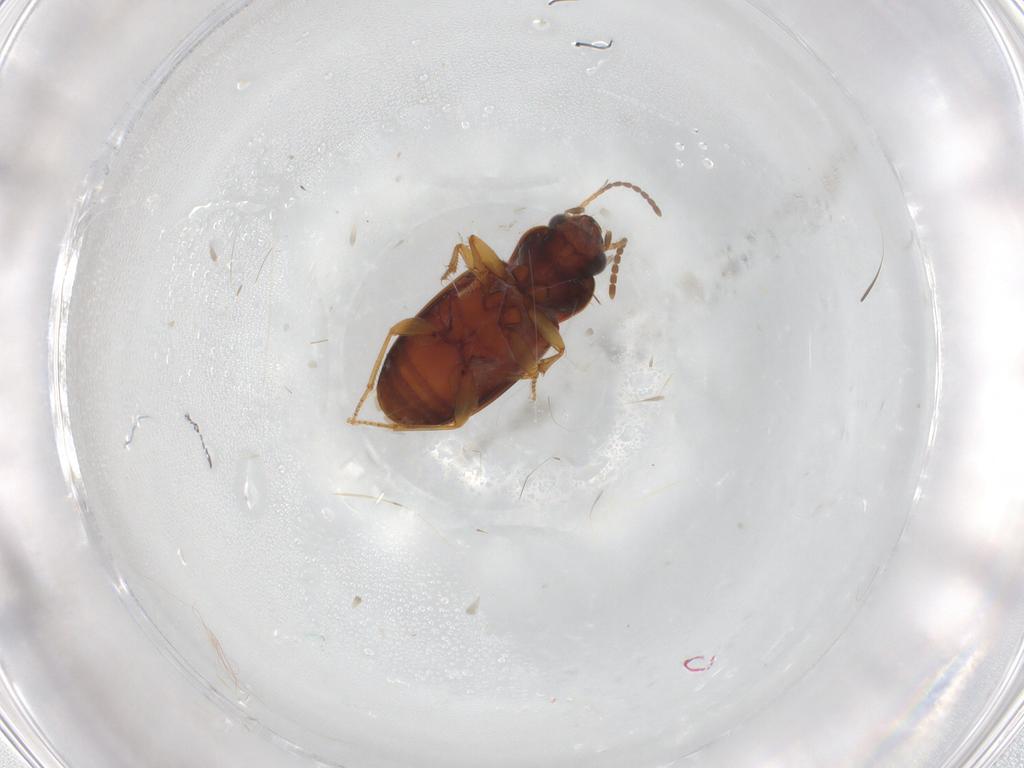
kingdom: Animalia
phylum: Arthropoda
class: Insecta
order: Coleoptera
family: Carabidae
